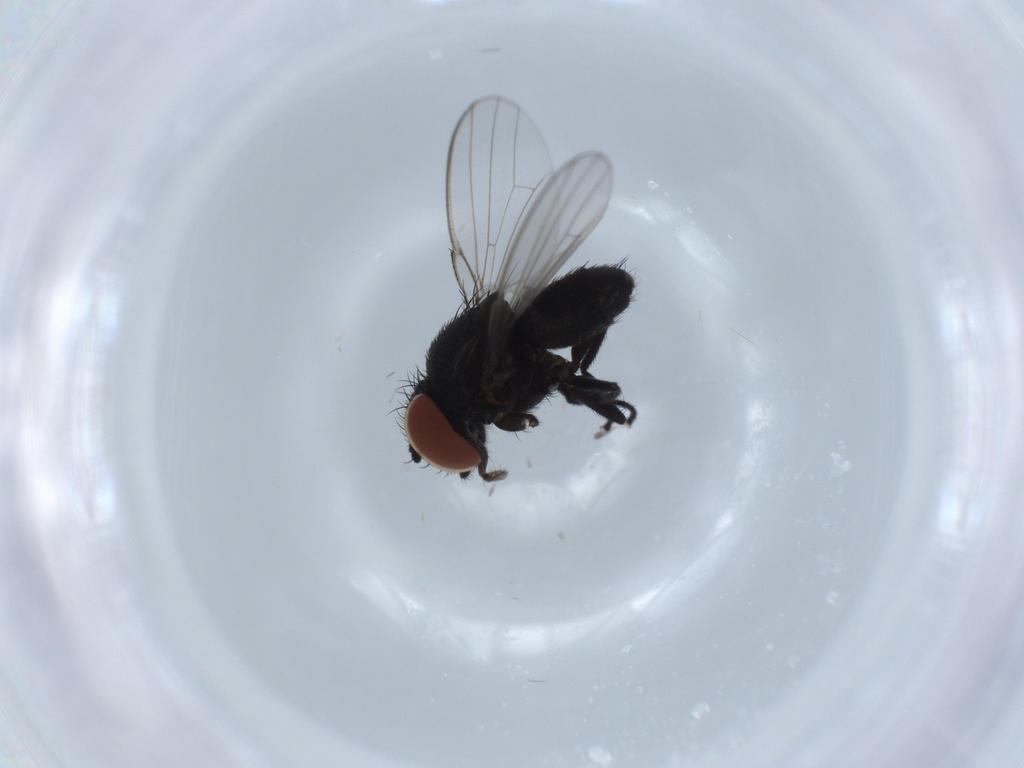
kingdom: Animalia
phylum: Arthropoda
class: Insecta
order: Diptera
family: Milichiidae
